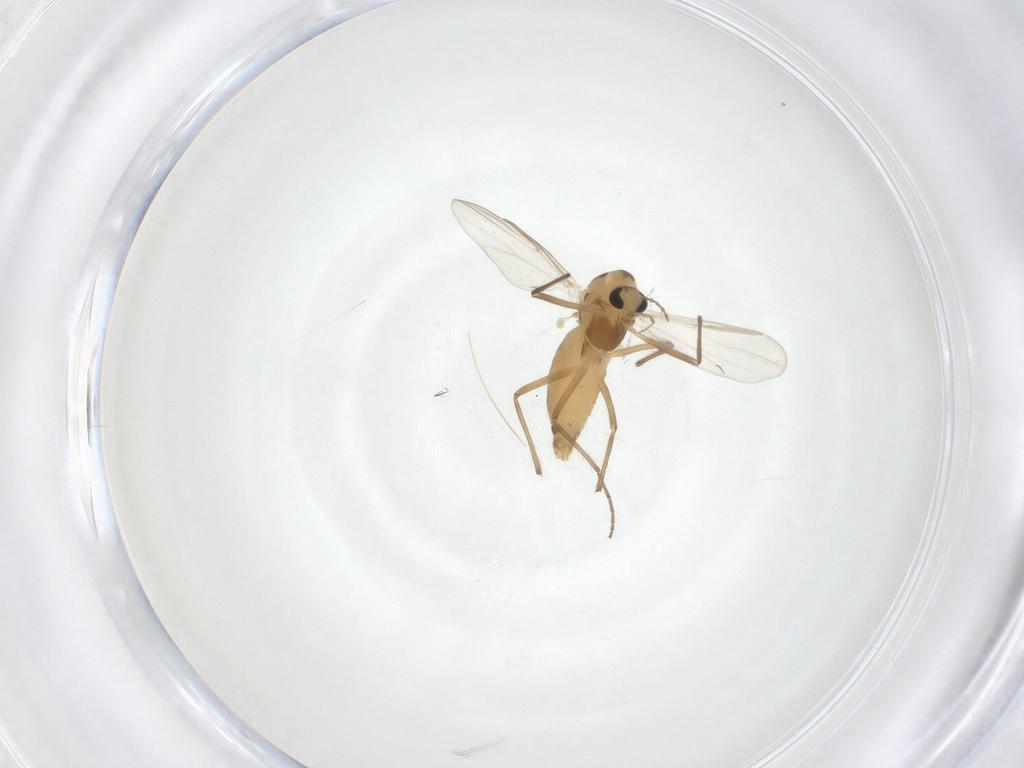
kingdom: Animalia
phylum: Arthropoda
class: Insecta
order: Diptera
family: Chironomidae
